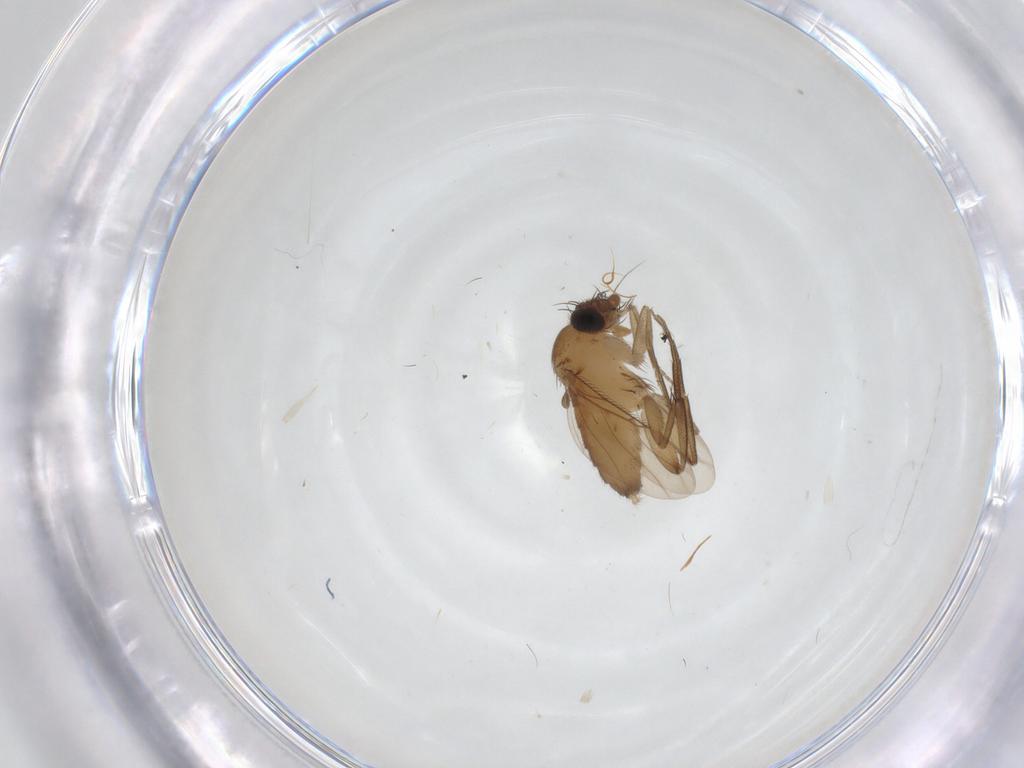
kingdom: Animalia
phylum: Arthropoda
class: Insecta
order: Diptera
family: Phoridae
